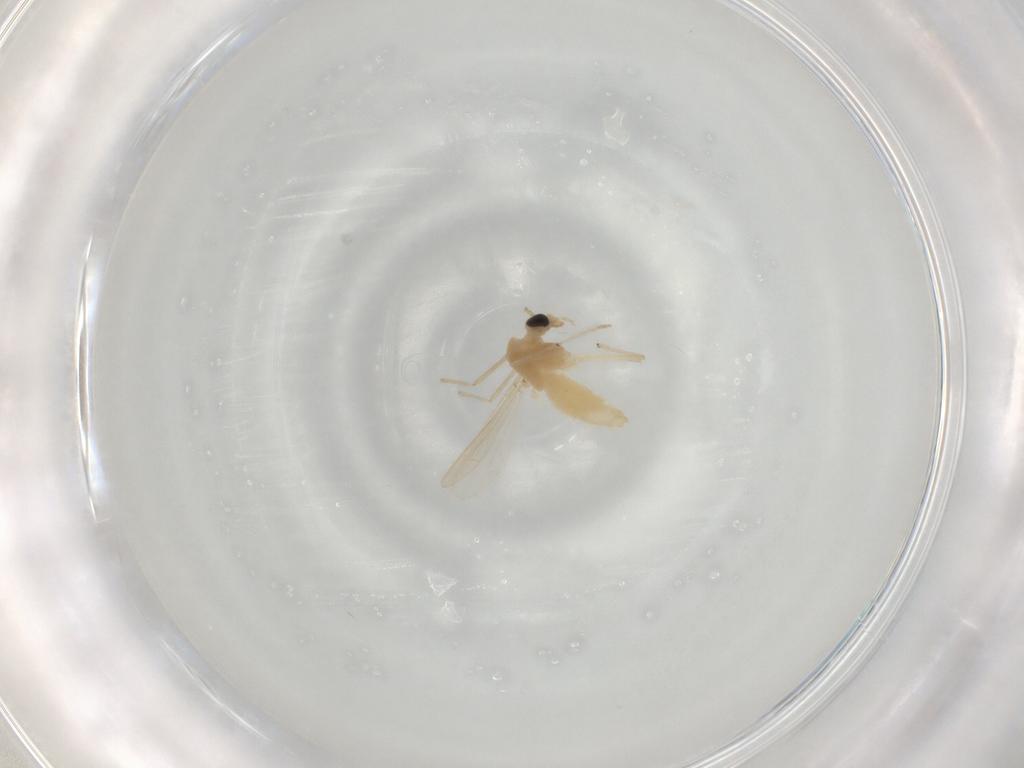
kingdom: Animalia
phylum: Arthropoda
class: Insecta
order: Diptera
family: Chironomidae
